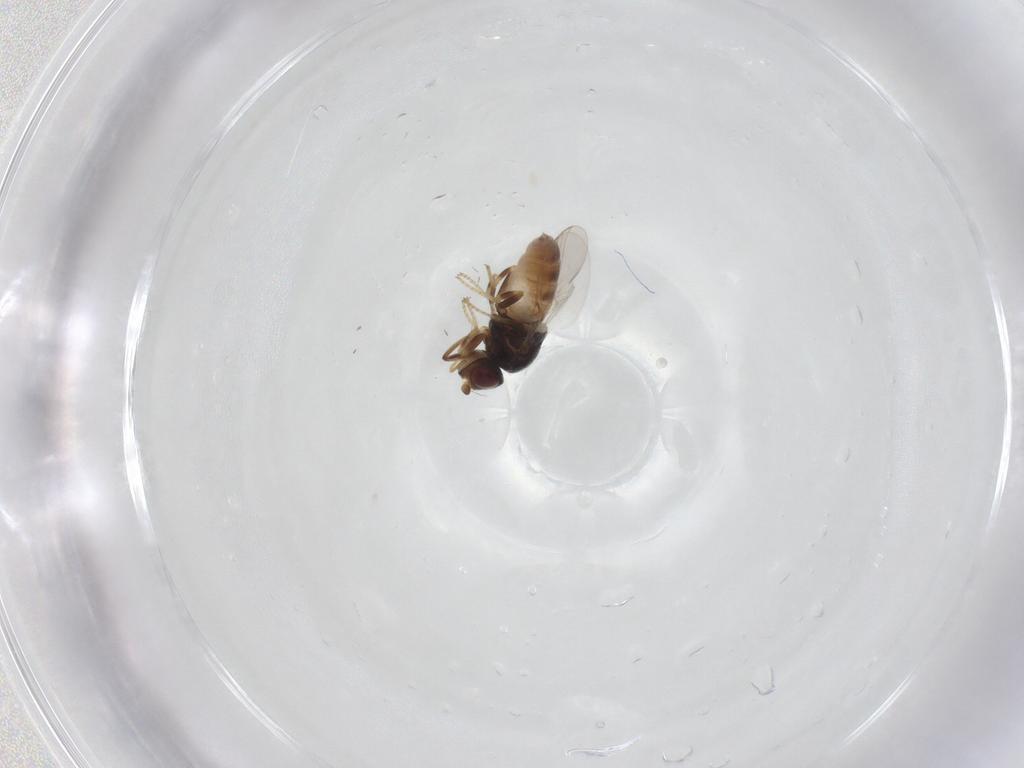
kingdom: Animalia
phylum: Arthropoda
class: Insecta
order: Diptera
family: Chloropidae
